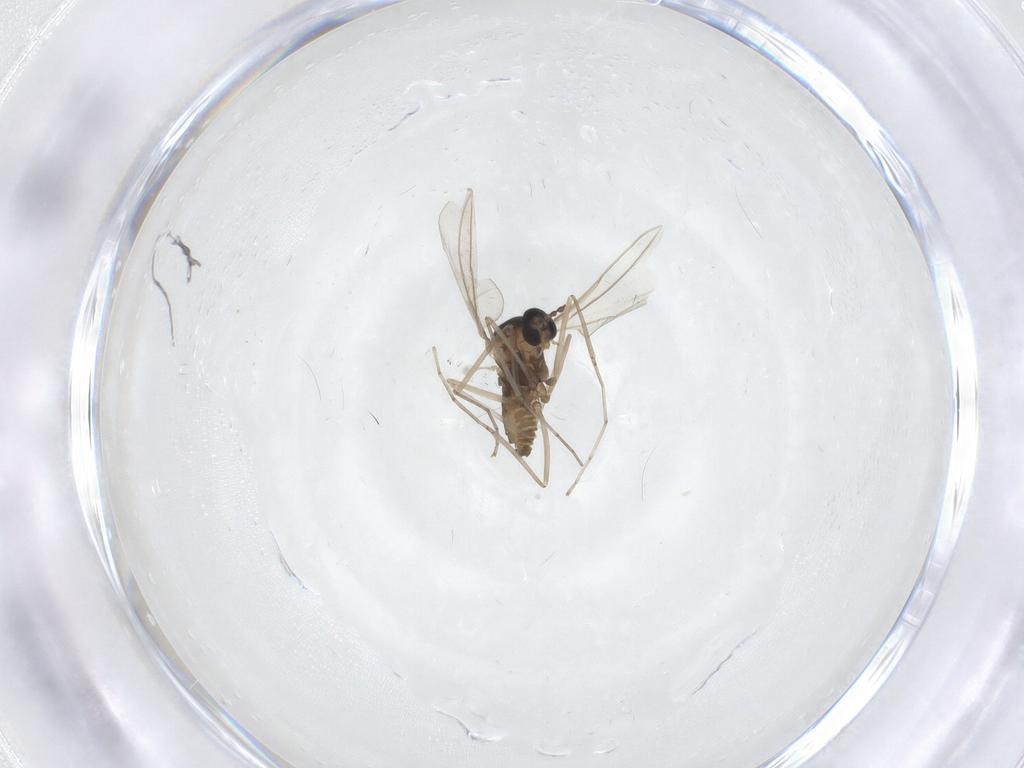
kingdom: Animalia
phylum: Arthropoda
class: Insecta
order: Diptera
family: Cecidomyiidae
